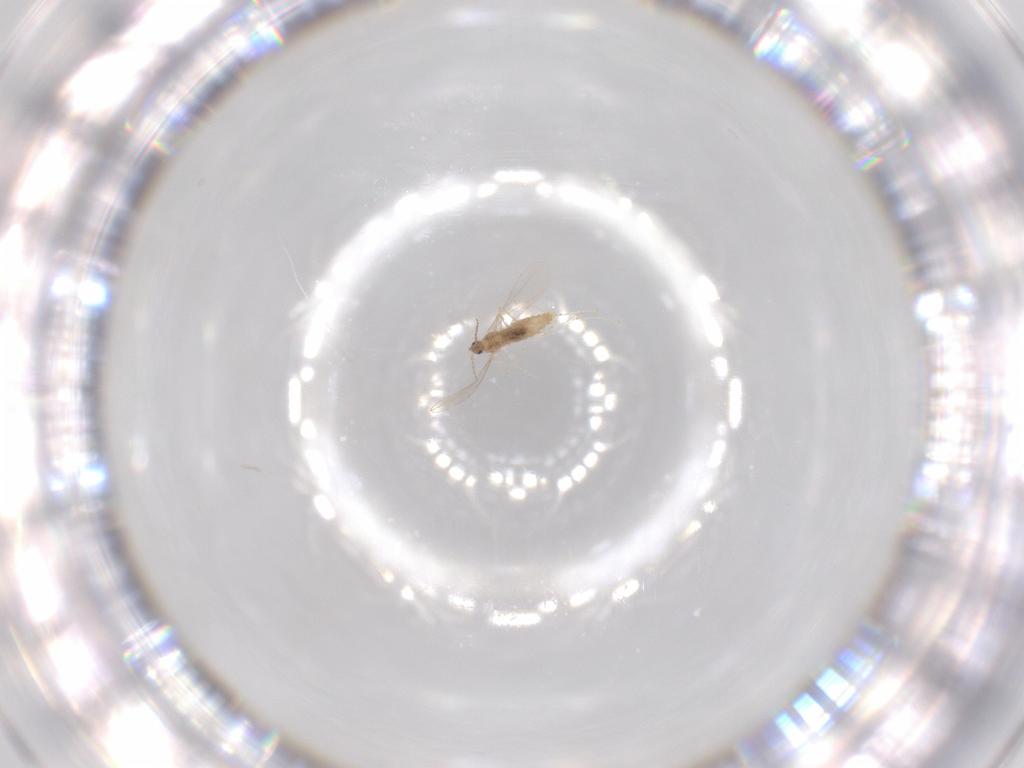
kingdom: Animalia
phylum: Arthropoda
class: Insecta
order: Diptera
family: Cecidomyiidae
